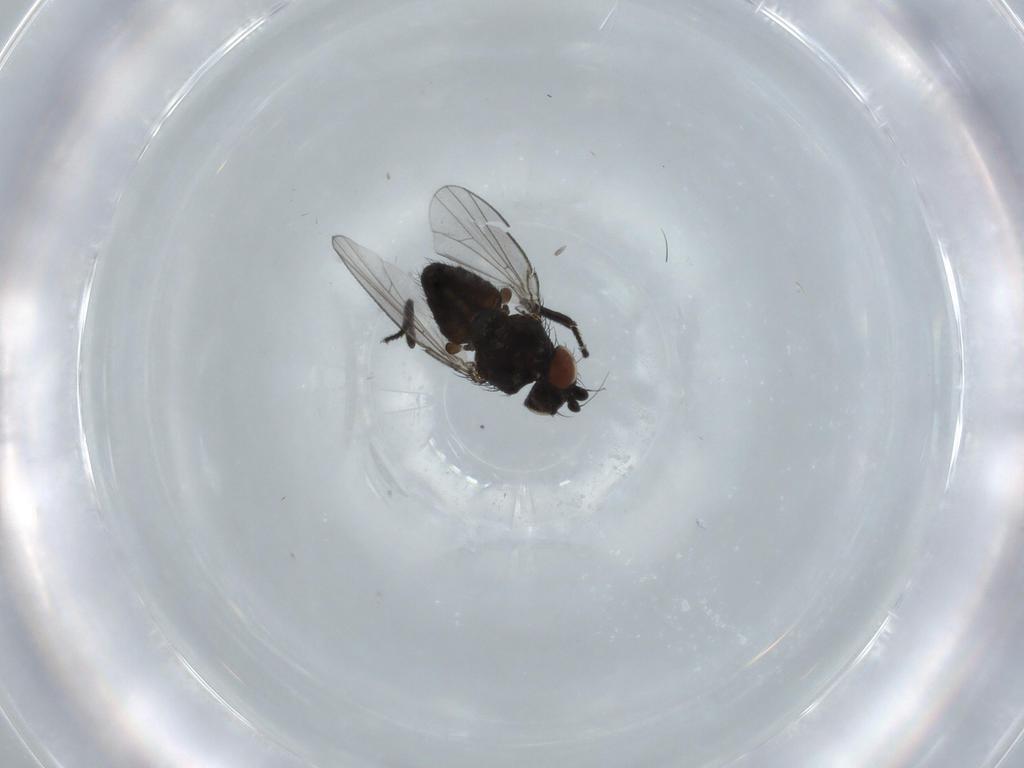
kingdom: Animalia
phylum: Arthropoda
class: Insecta
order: Diptera
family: Milichiidae
